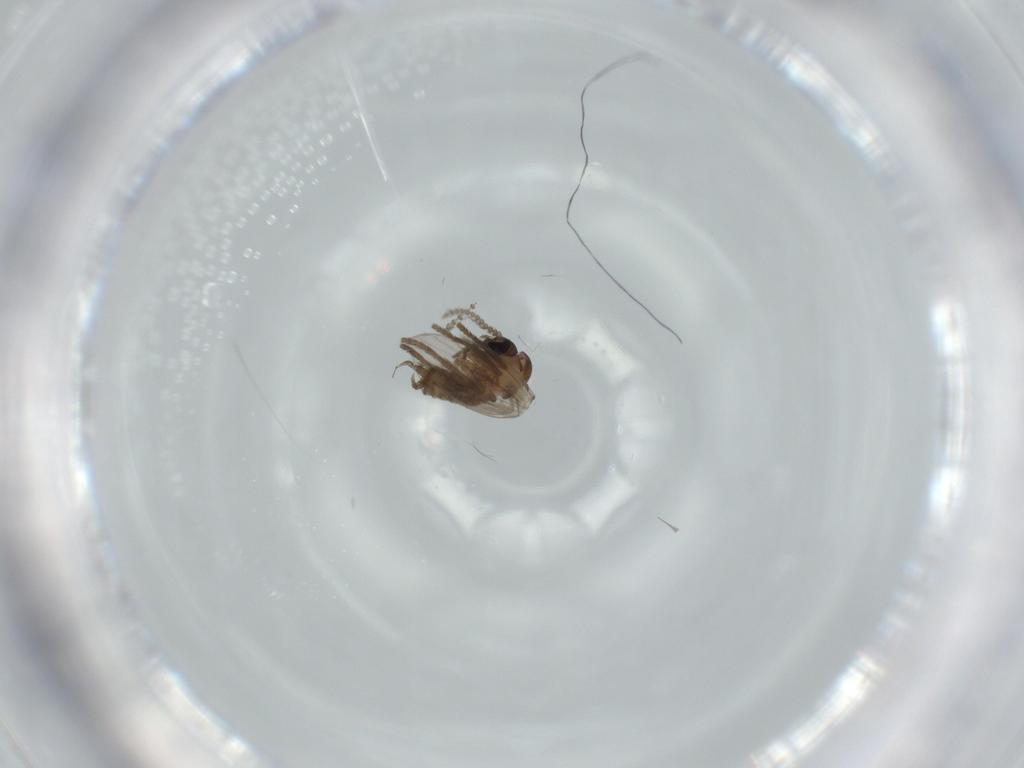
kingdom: Animalia
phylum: Arthropoda
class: Insecta
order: Diptera
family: Psychodidae
